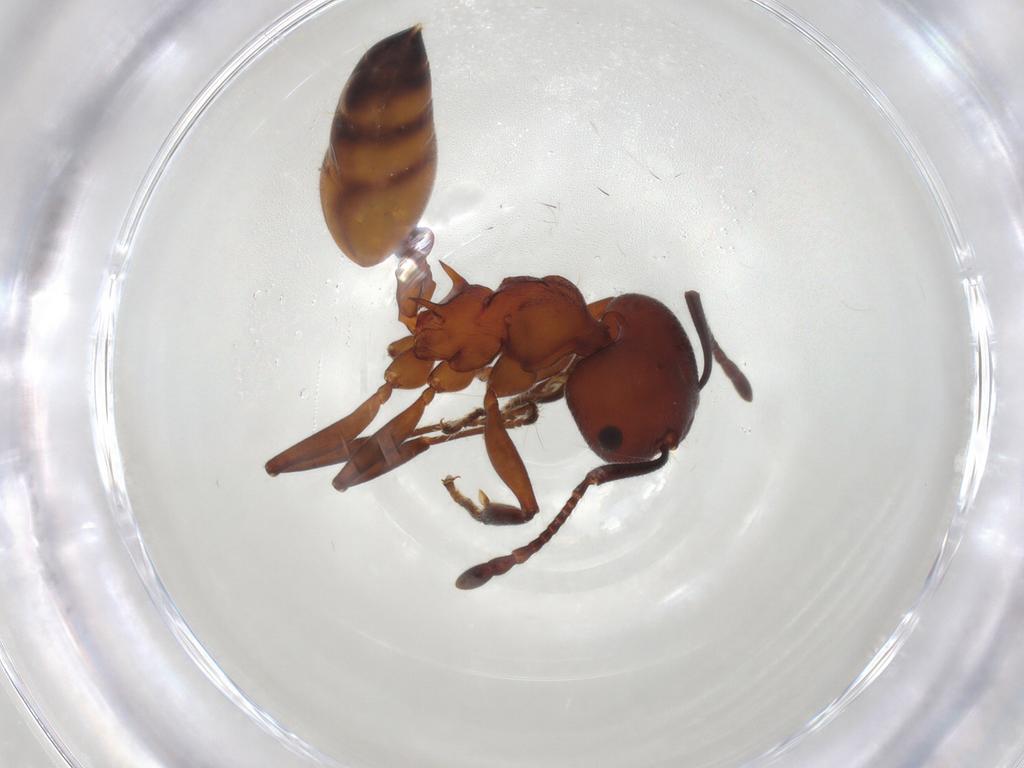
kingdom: Animalia
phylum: Arthropoda
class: Insecta
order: Hymenoptera
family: Formicidae
